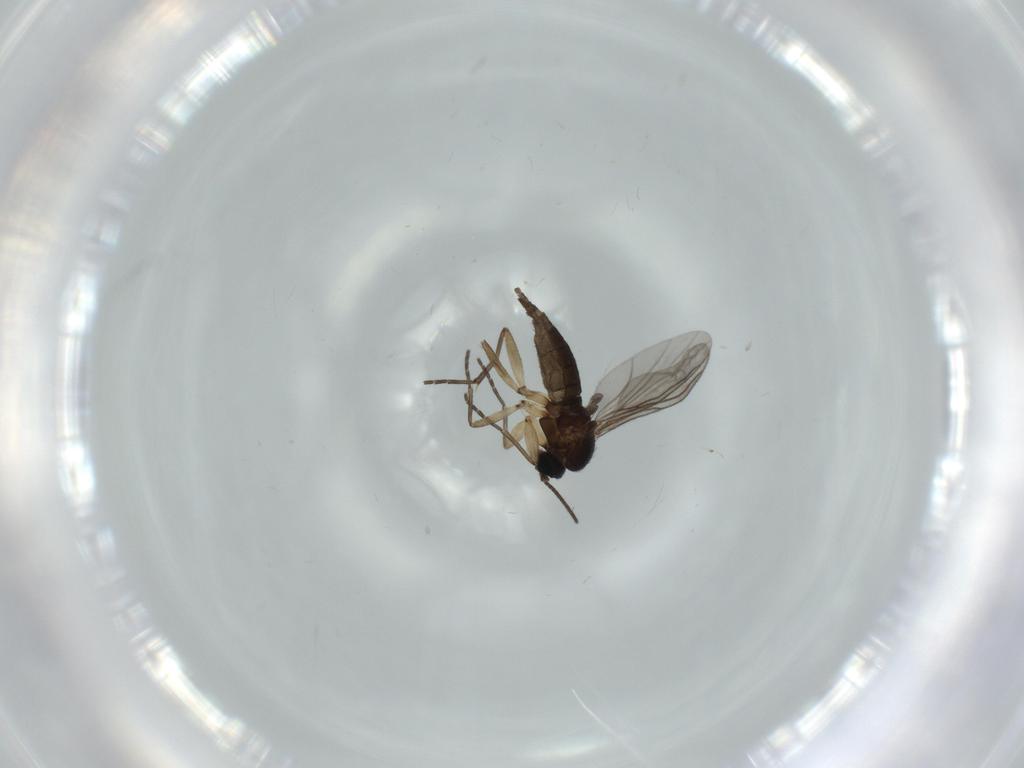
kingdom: Animalia
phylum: Arthropoda
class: Insecta
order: Diptera
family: Sciaridae
